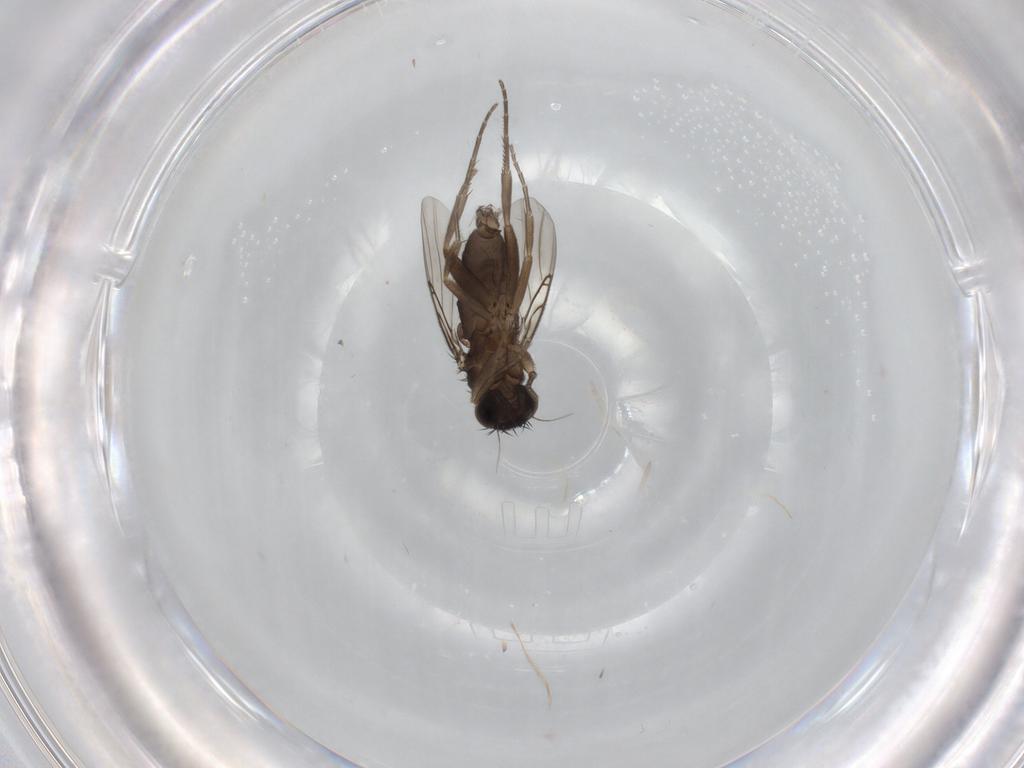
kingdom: Animalia
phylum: Arthropoda
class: Insecta
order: Diptera
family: Phoridae
